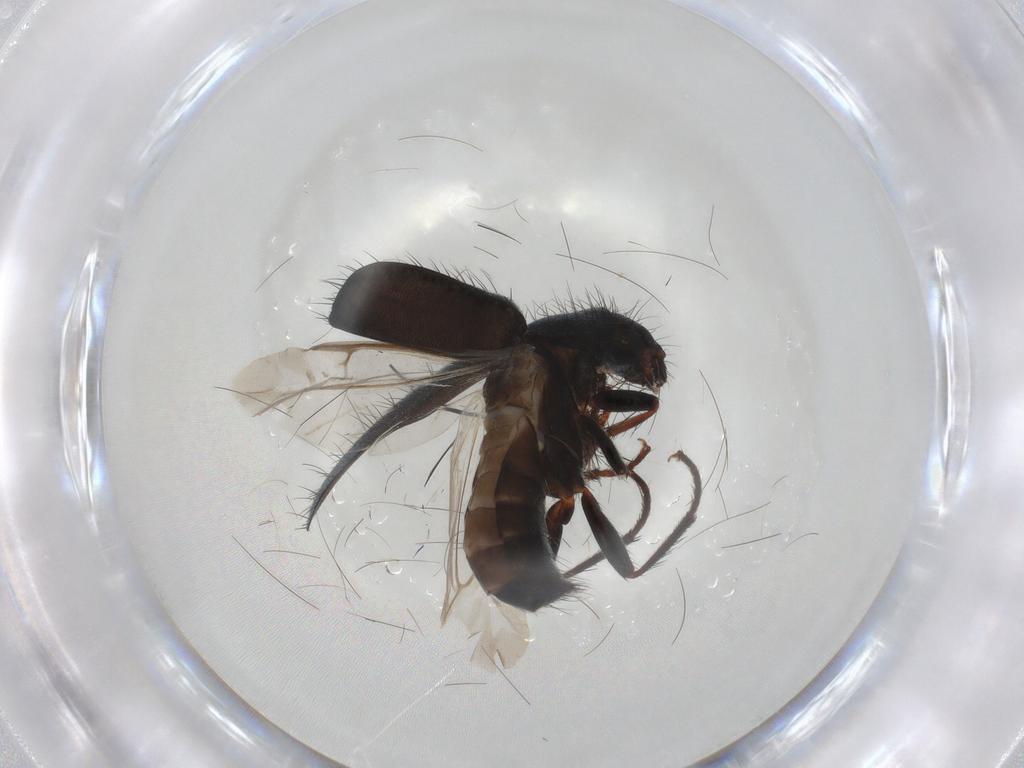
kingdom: Animalia
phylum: Arthropoda
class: Insecta
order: Coleoptera
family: Melyridae
